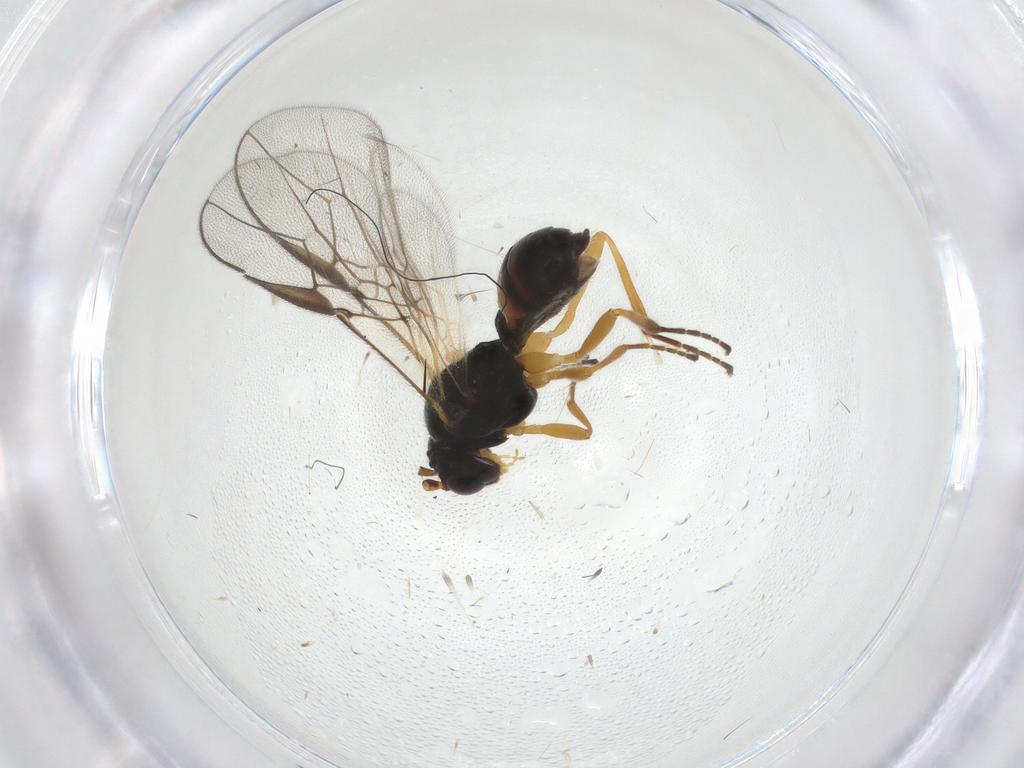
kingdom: Animalia
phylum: Arthropoda
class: Insecta
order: Hymenoptera
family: Braconidae
